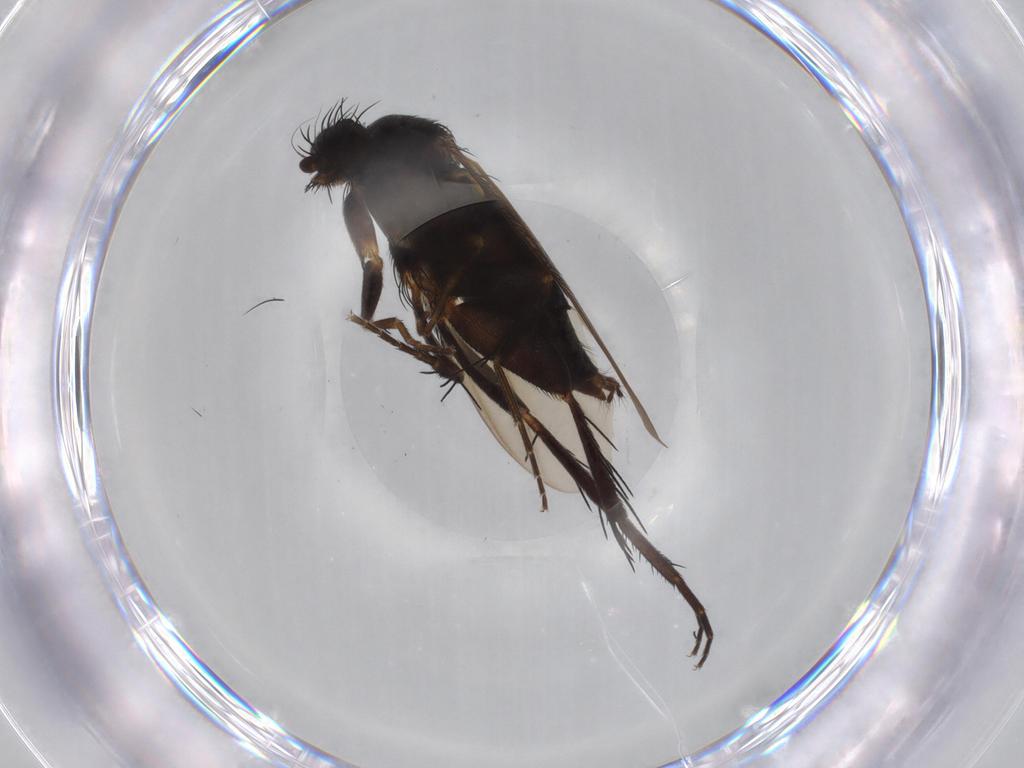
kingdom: Animalia
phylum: Arthropoda
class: Insecta
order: Diptera
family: Phoridae
